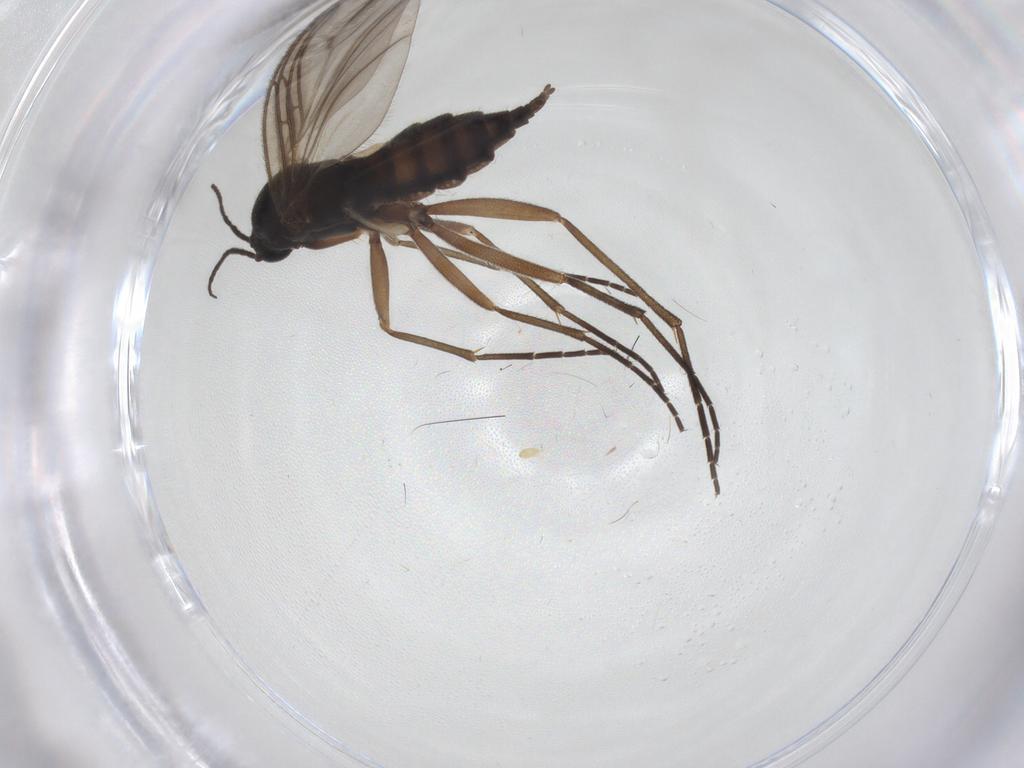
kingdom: Animalia
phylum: Arthropoda
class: Insecta
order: Diptera
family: Sciaridae
